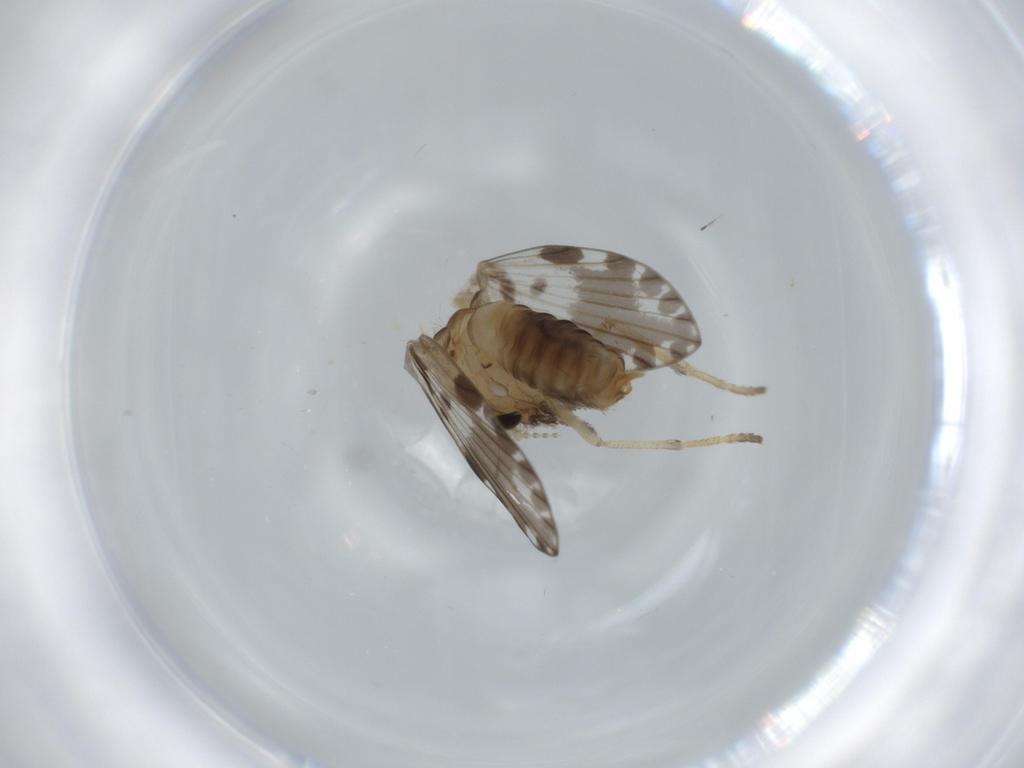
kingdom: Animalia
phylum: Arthropoda
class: Insecta
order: Diptera
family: Psychodidae
